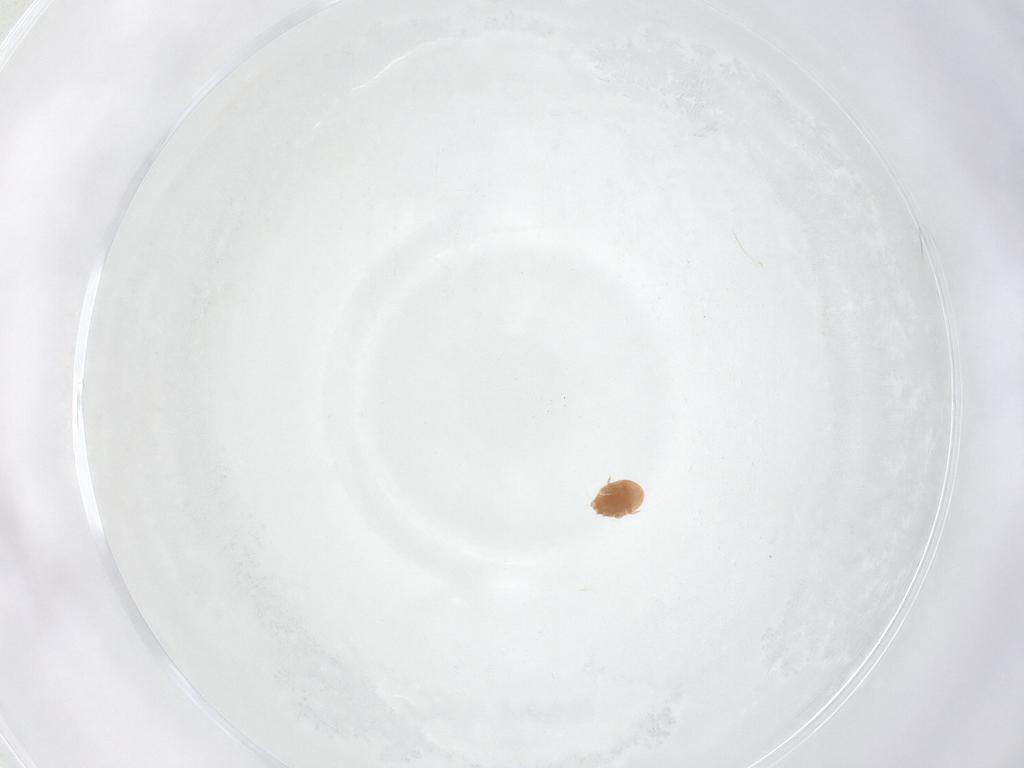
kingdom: Animalia
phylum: Arthropoda
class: Arachnida
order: Mesostigmata
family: Trematuridae
